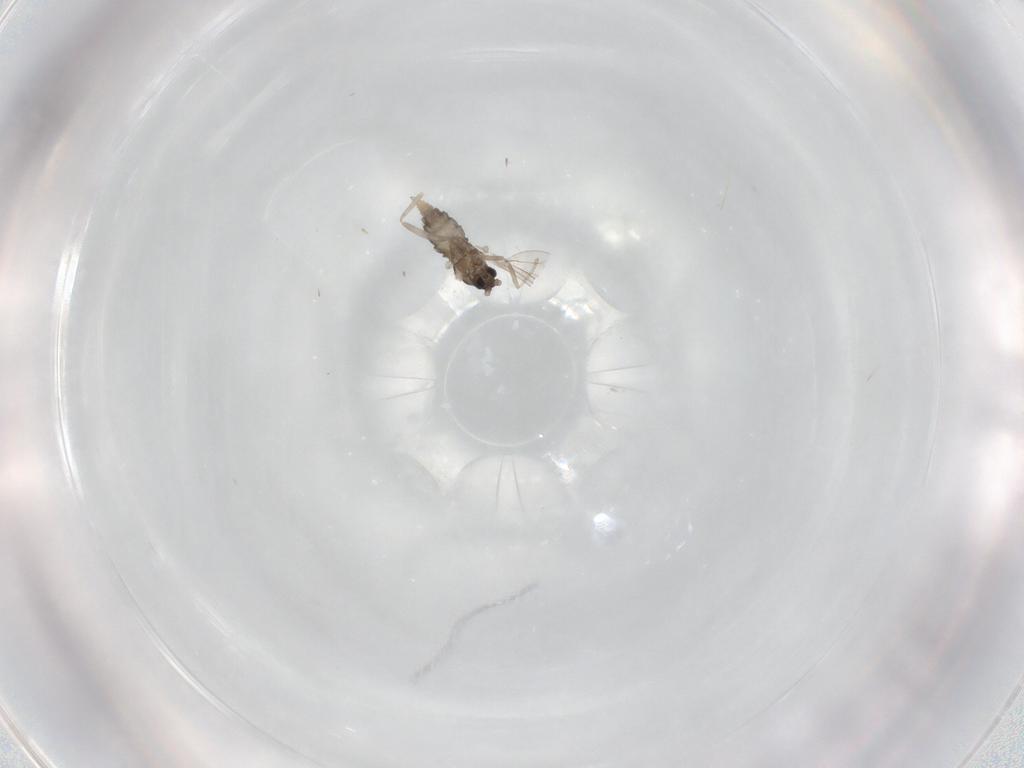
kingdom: Animalia
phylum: Arthropoda
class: Insecta
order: Diptera
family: Cecidomyiidae
